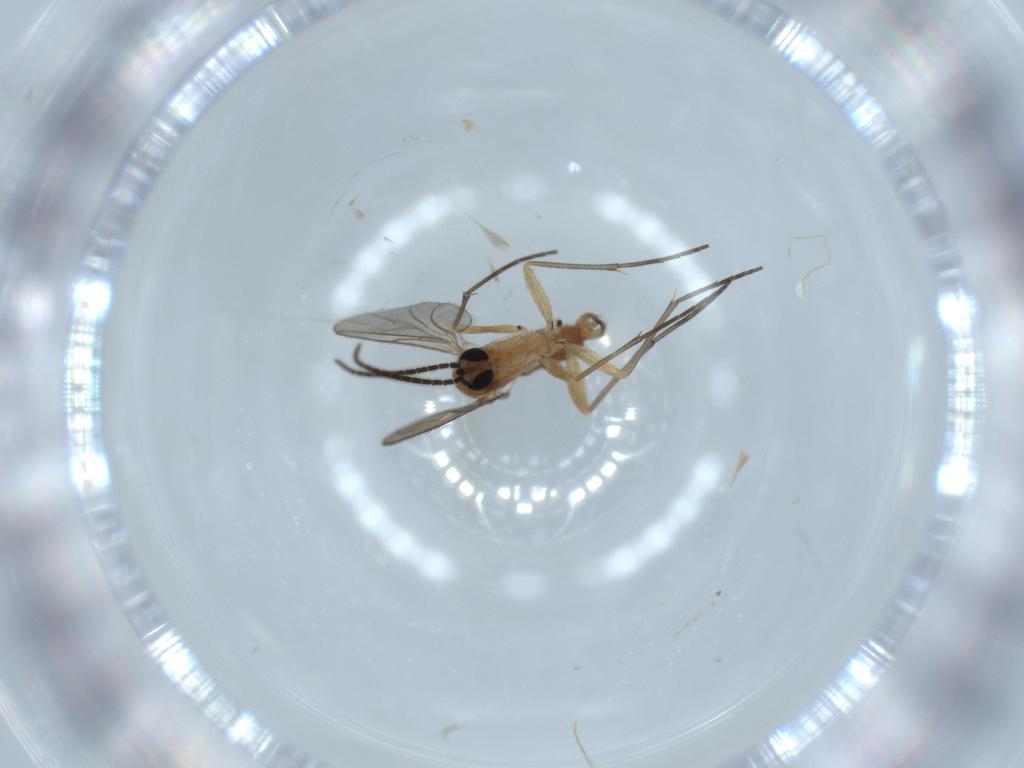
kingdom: Animalia
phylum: Arthropoda
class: Insecta
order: Diptera
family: Sciaridae
